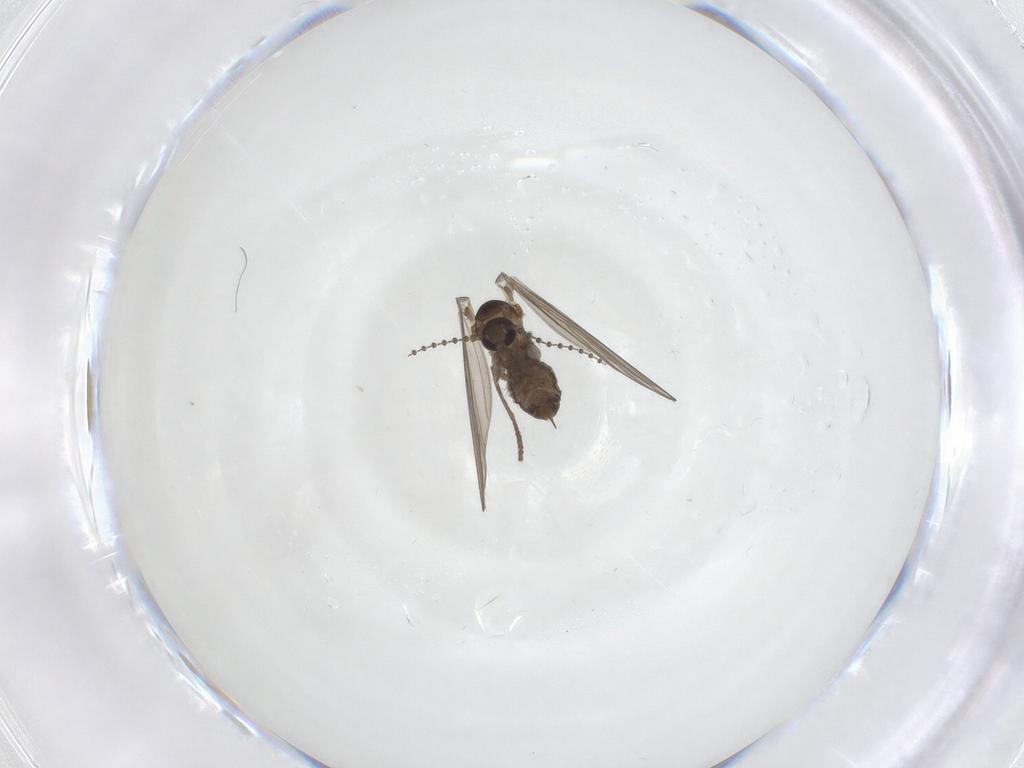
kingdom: Animalia
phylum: Arthropoda
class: Insecta
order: Diptera
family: Psychodidae
